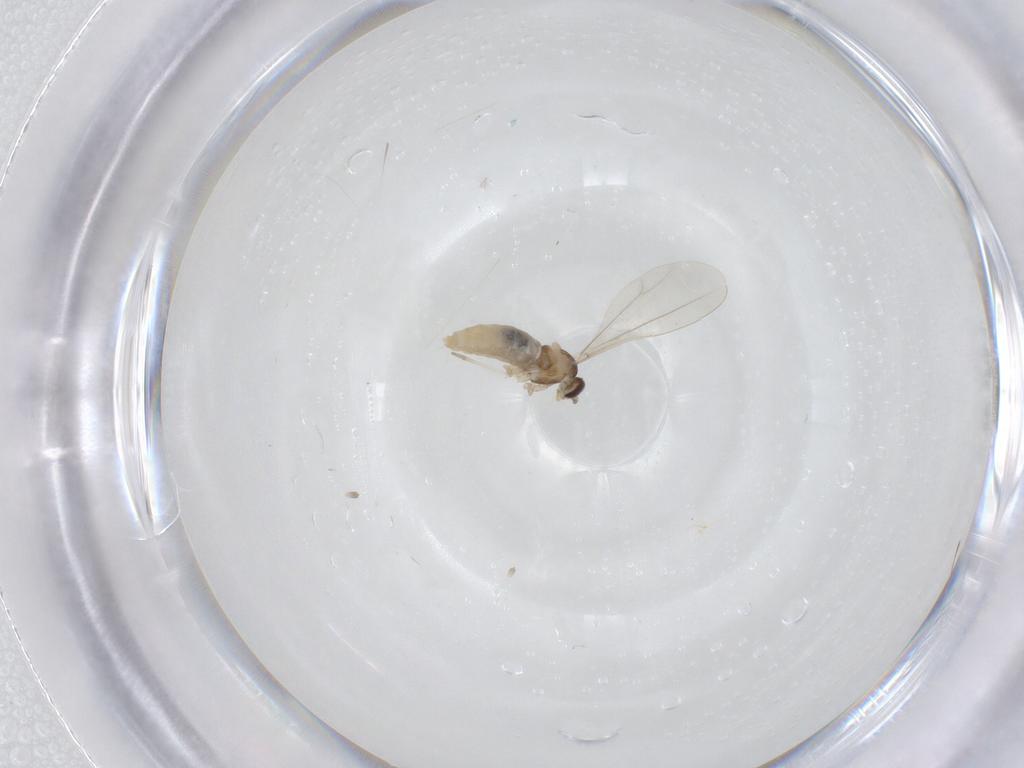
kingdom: Animalia
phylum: Arthropoda
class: Insecta
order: Diptera
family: Cecidomyiidae
